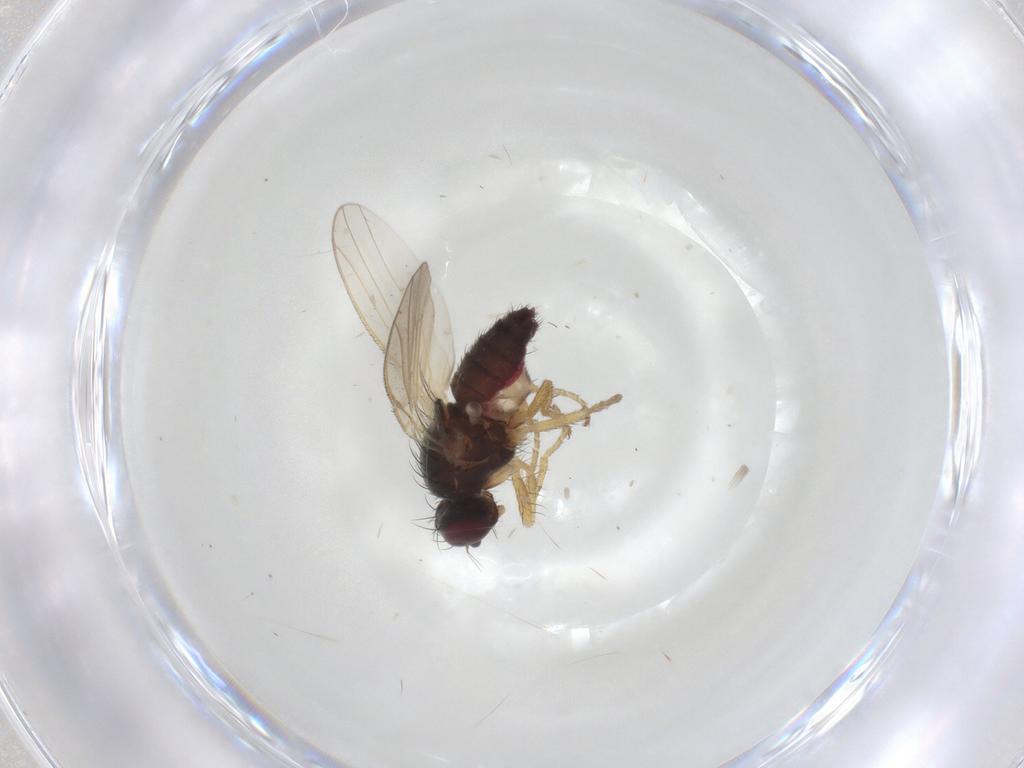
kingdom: Animalia
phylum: Arthropoda
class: Insecta
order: Diptera
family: Heleomyzidae
